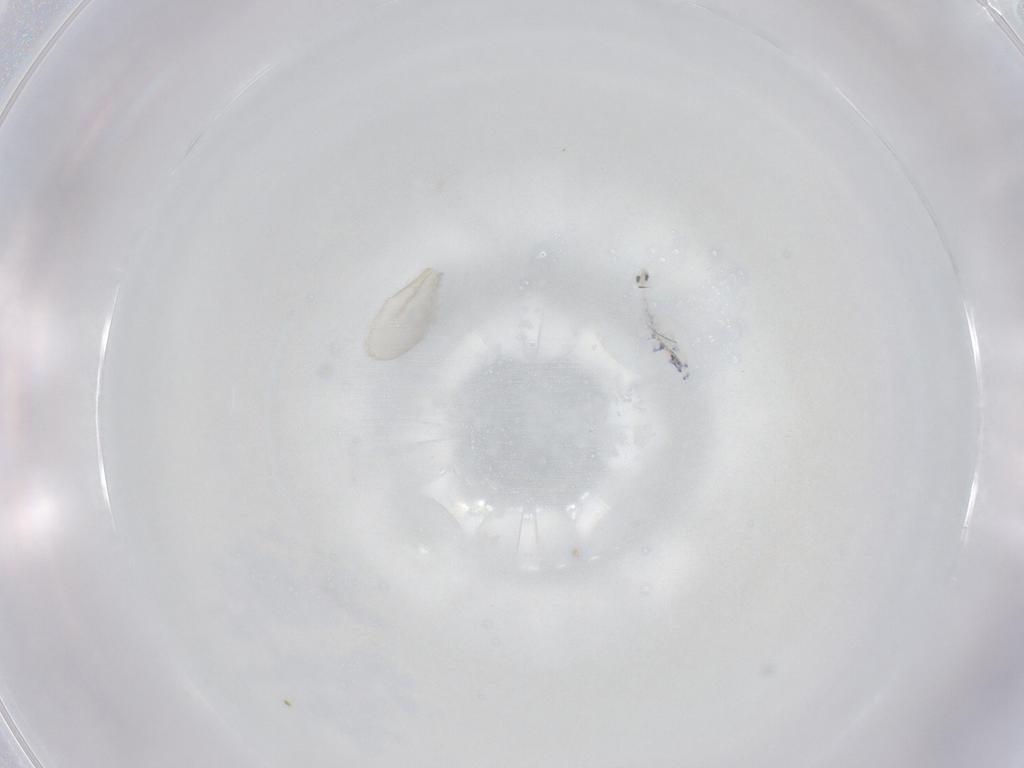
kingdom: Animalia
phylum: Arthropoda
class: Collembola
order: Entomobryomorpha
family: Entomobryidae
